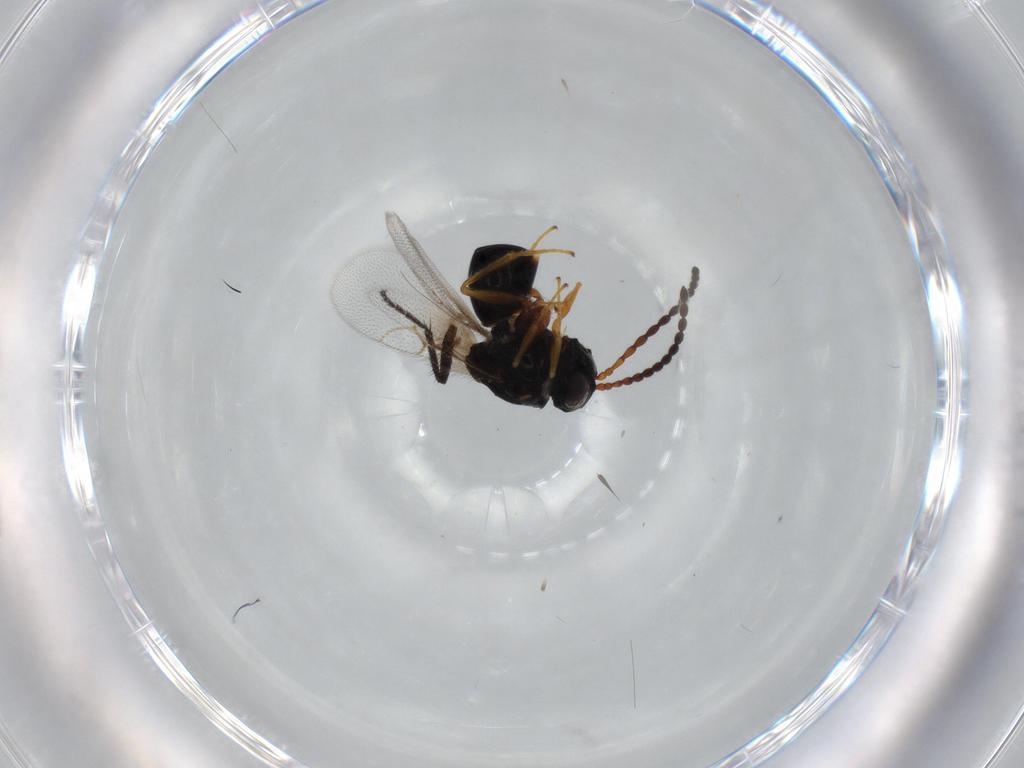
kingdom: Animalia
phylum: Arthropoda
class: Insecta
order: Hymenoptera
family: Figitidae
